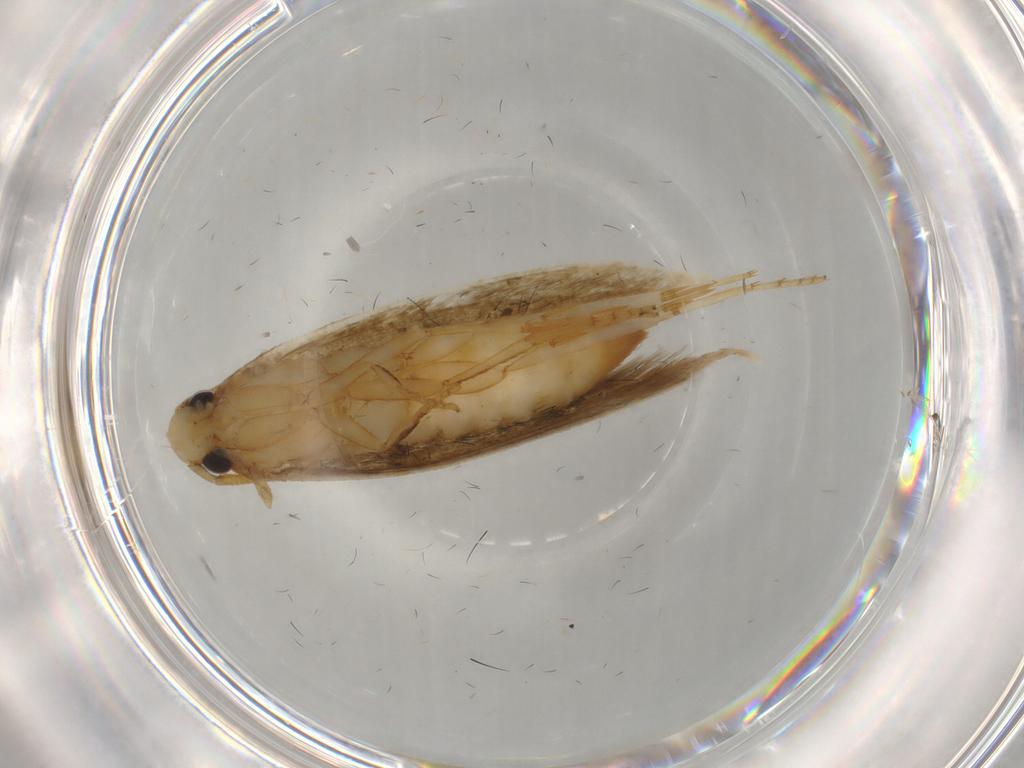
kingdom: Animalia
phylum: Arthropoda
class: Insecta
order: Lepidoptera
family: Tineidae
